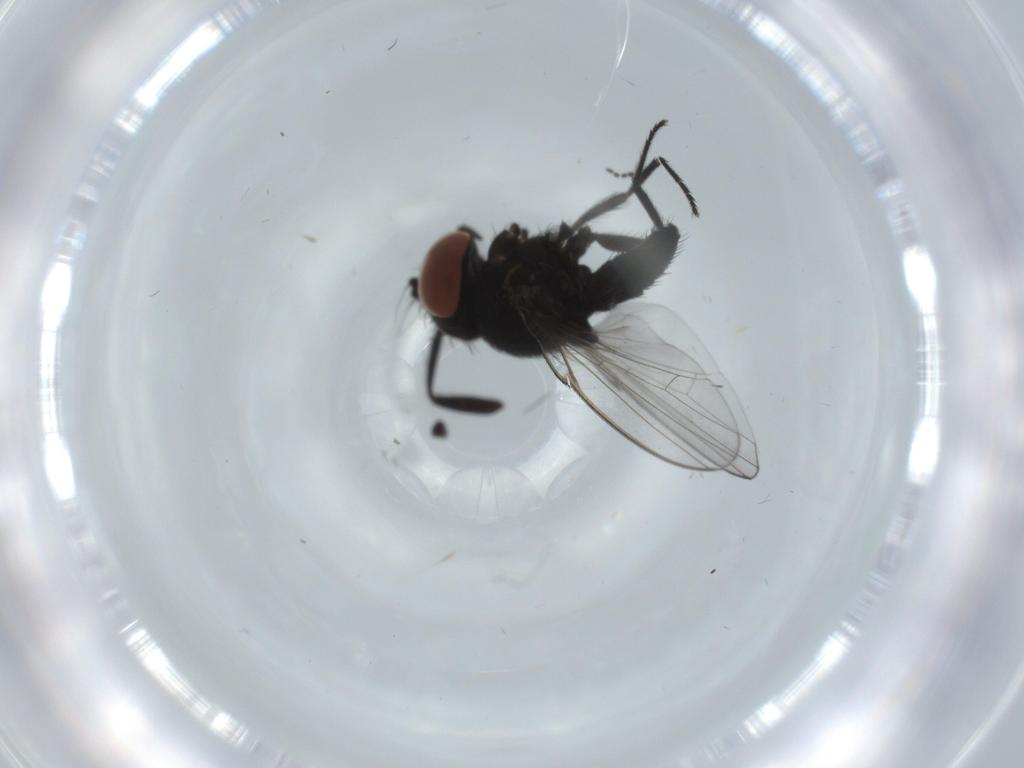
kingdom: Animalia
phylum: Arthropoda
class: Insecta
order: Diptera
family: Milichiidae
